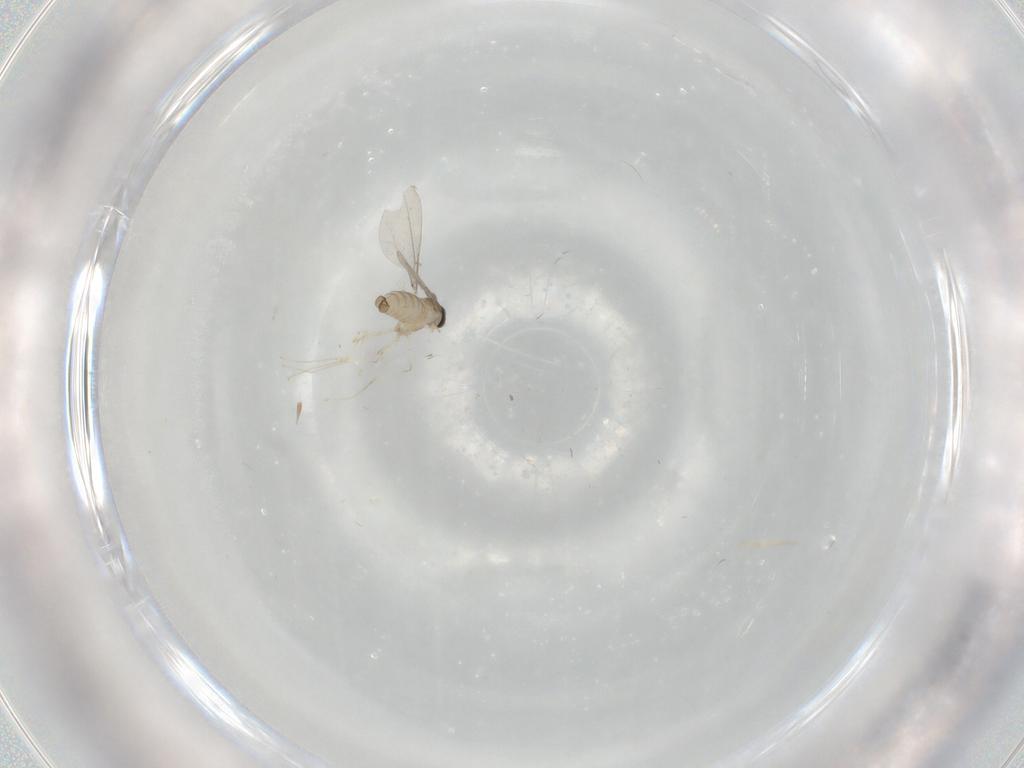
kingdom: Animalia
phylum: Arthropoda
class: Insecta
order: Diptera
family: Cecidomyiidae
